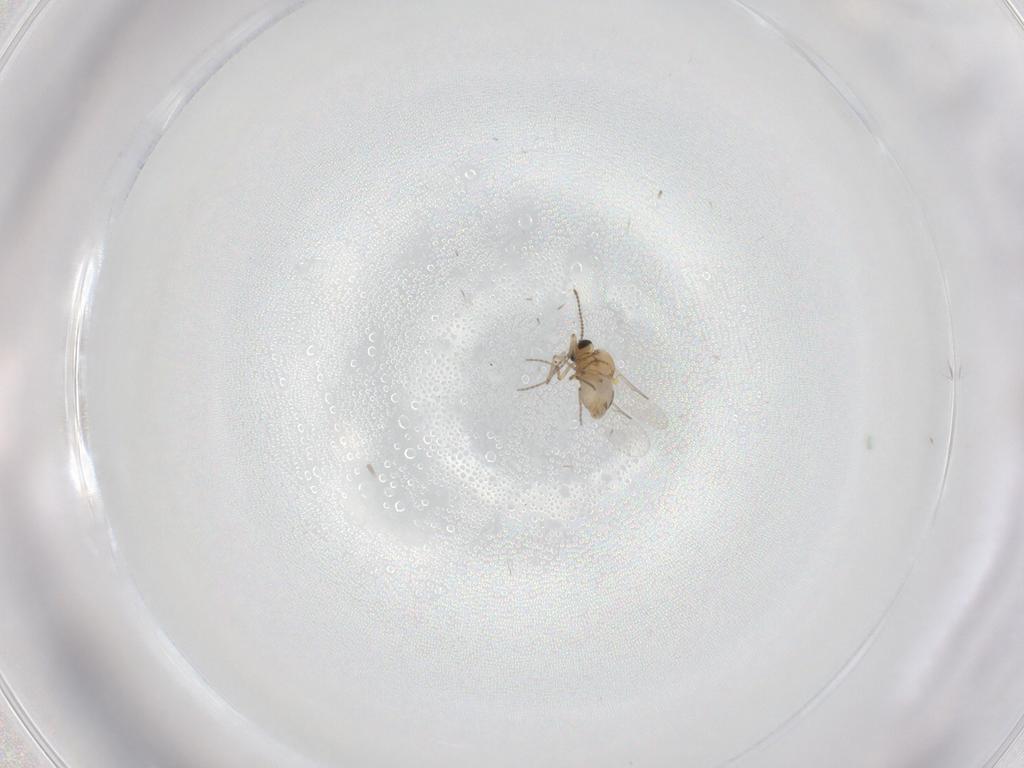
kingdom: Animalia
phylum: Arthropoda
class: Insecta
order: Diptera
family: Ceratopogonidae
